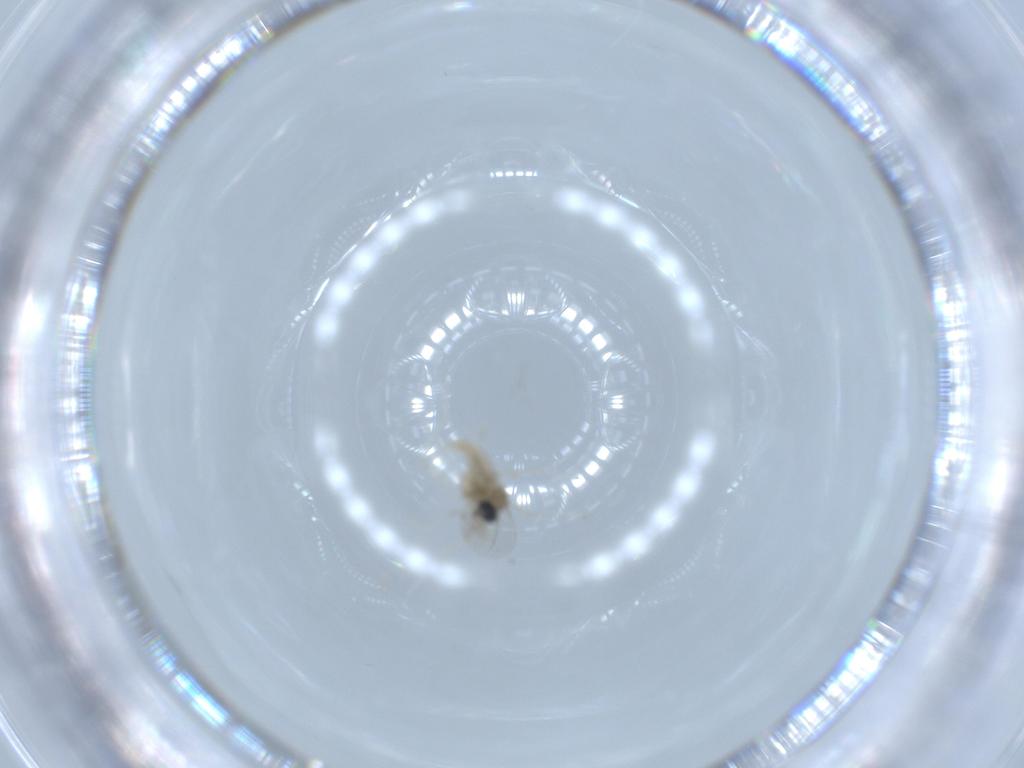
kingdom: Animalia
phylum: Arthropoda
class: Insecta
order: Diptera
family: Cecidomyiidae
